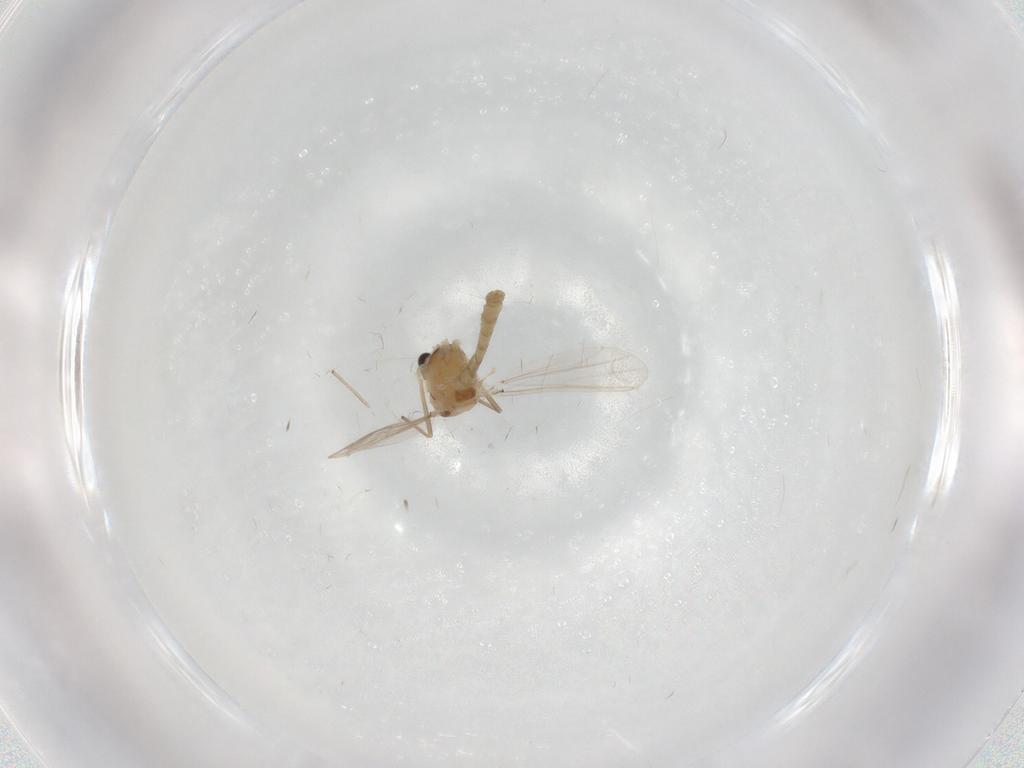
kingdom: Animalia
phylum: Arthropoda
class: Insecta
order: Diptera
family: Chironomidae
